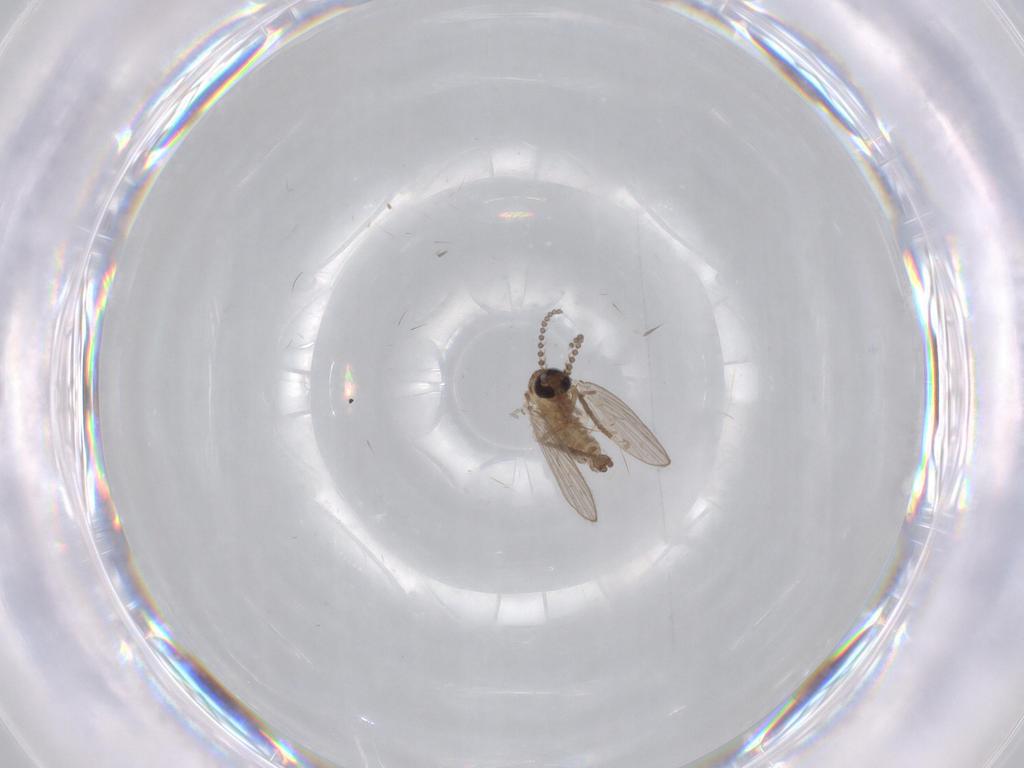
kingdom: Animalia
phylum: Arthropoda
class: Insecta
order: Diptera
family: Psychodidae
